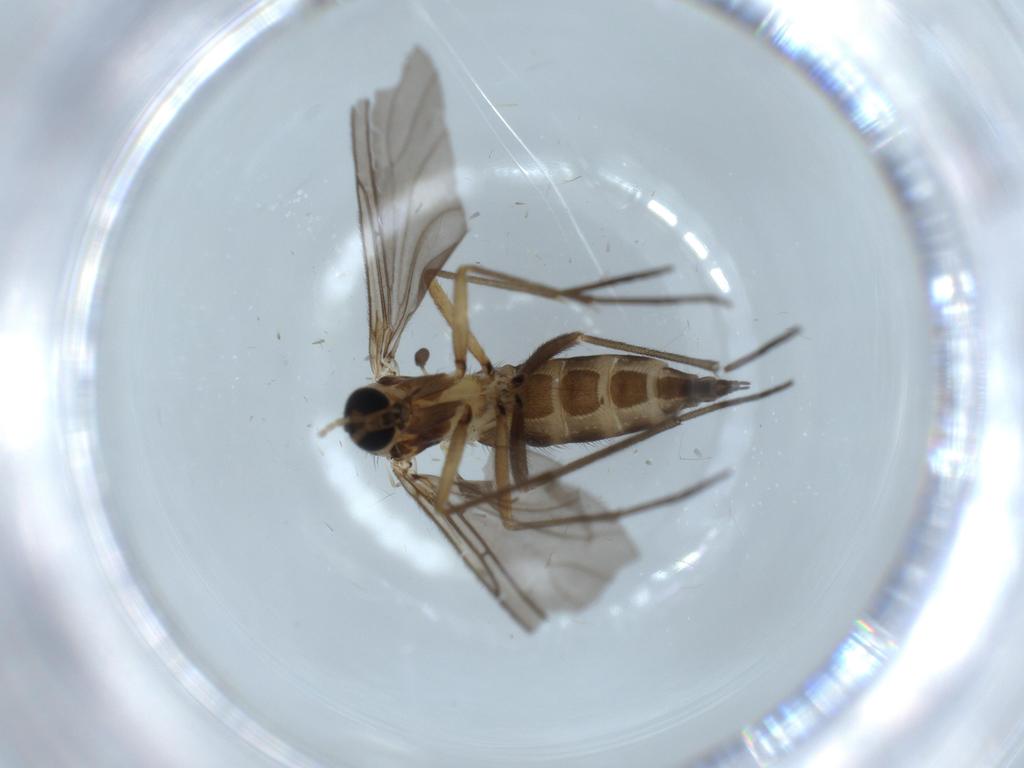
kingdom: Animalia
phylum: Arthropoda
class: Insecta
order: Diptera
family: Sciaridae
